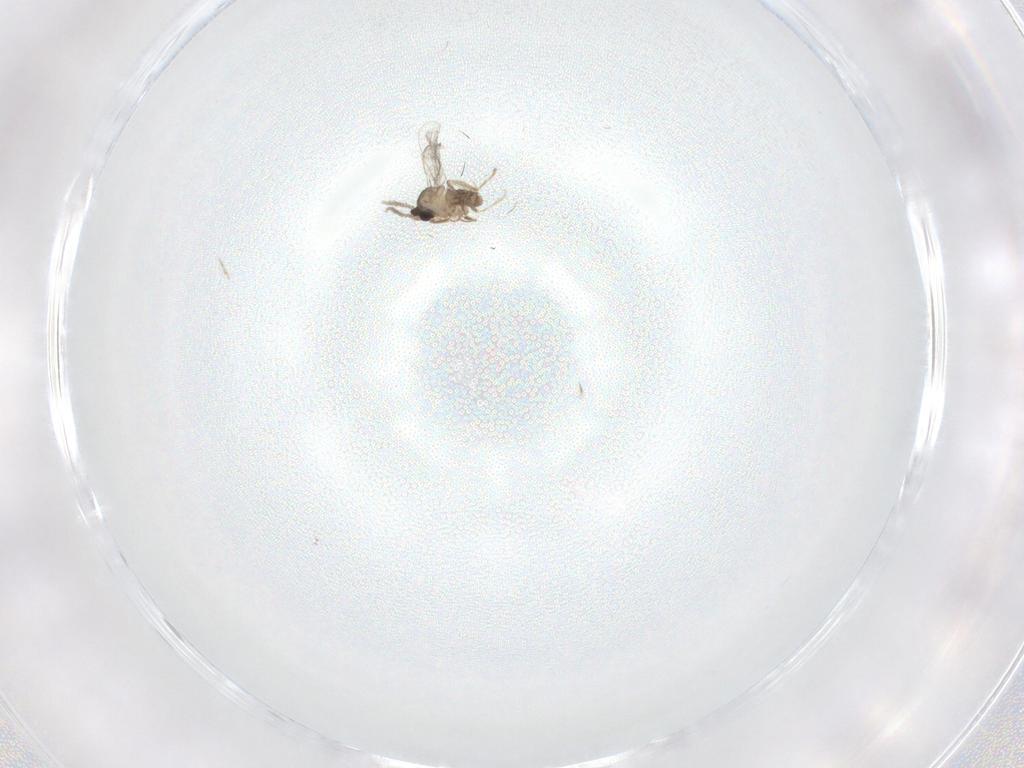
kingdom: Animalia
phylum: Arthropoda
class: Insecta
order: Diptera
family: Cecidomyiidae
